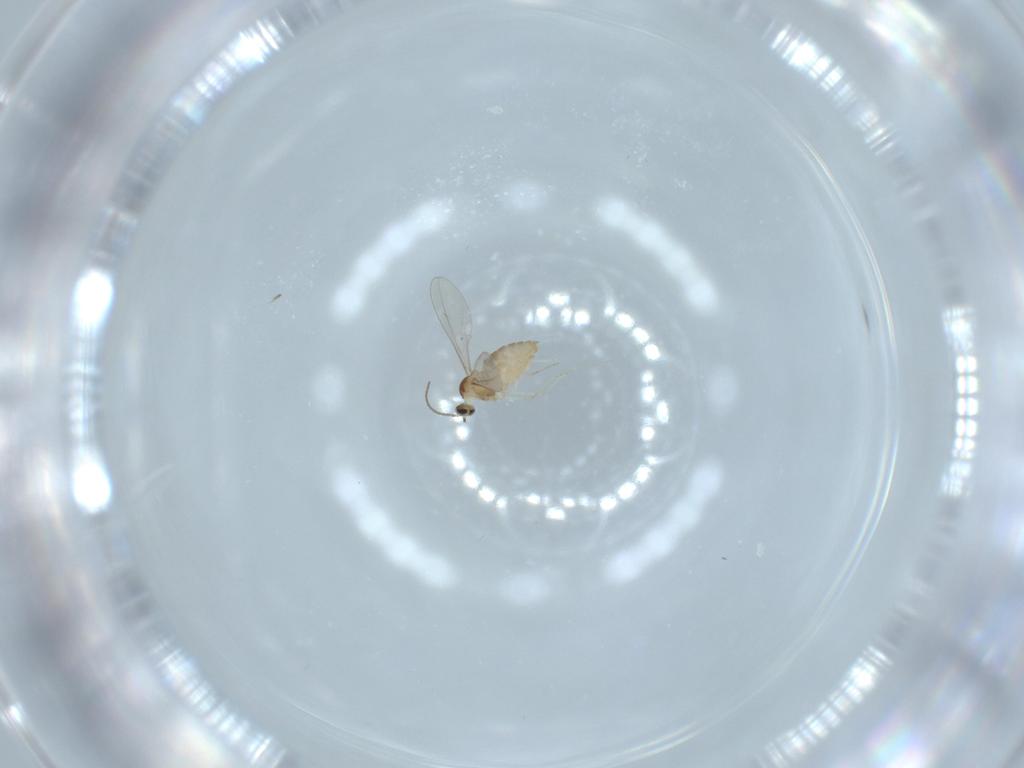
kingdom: Animalia
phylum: Arthropoda
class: Insecta
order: Diptera
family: Cecidomyiidae
